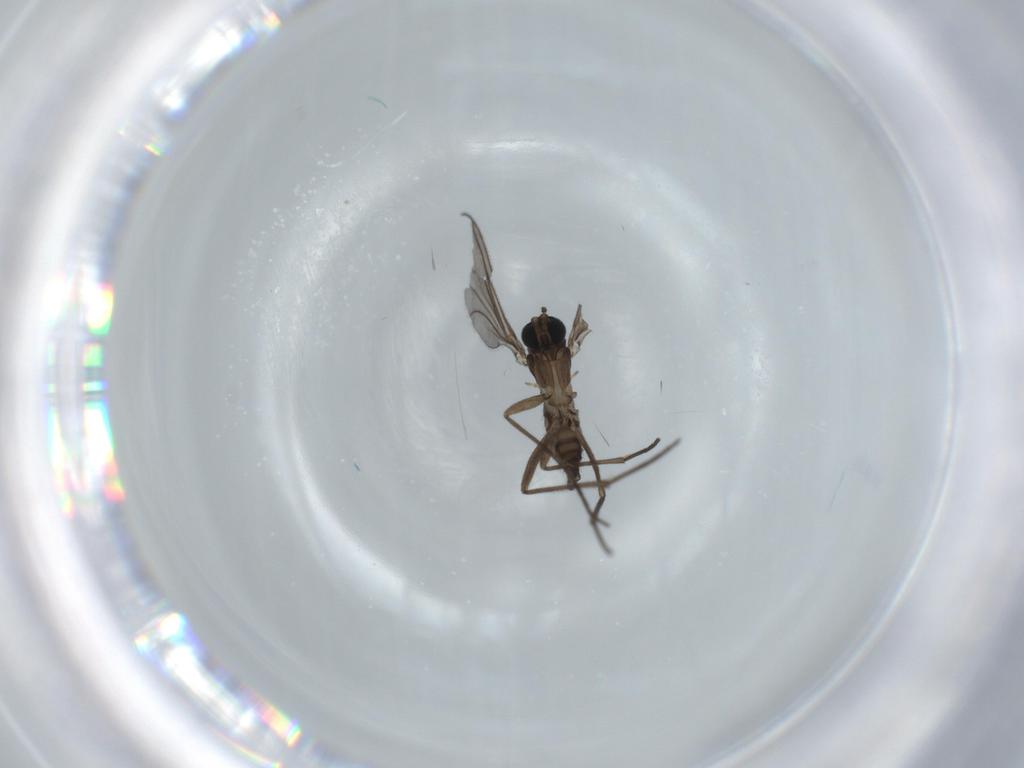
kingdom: Animalia
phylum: Arthropoda
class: Insecta
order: Diptera
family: Sciaridae
